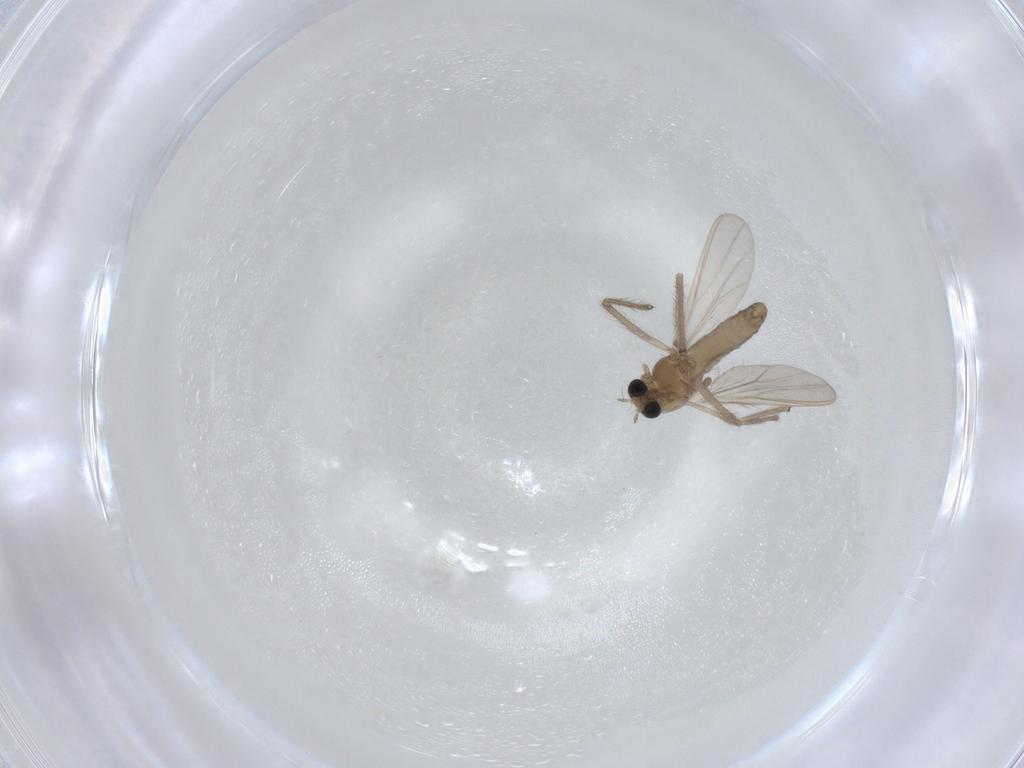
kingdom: Animalia
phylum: Arthropoda
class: Insecta
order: Diptera
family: Chironomidae
